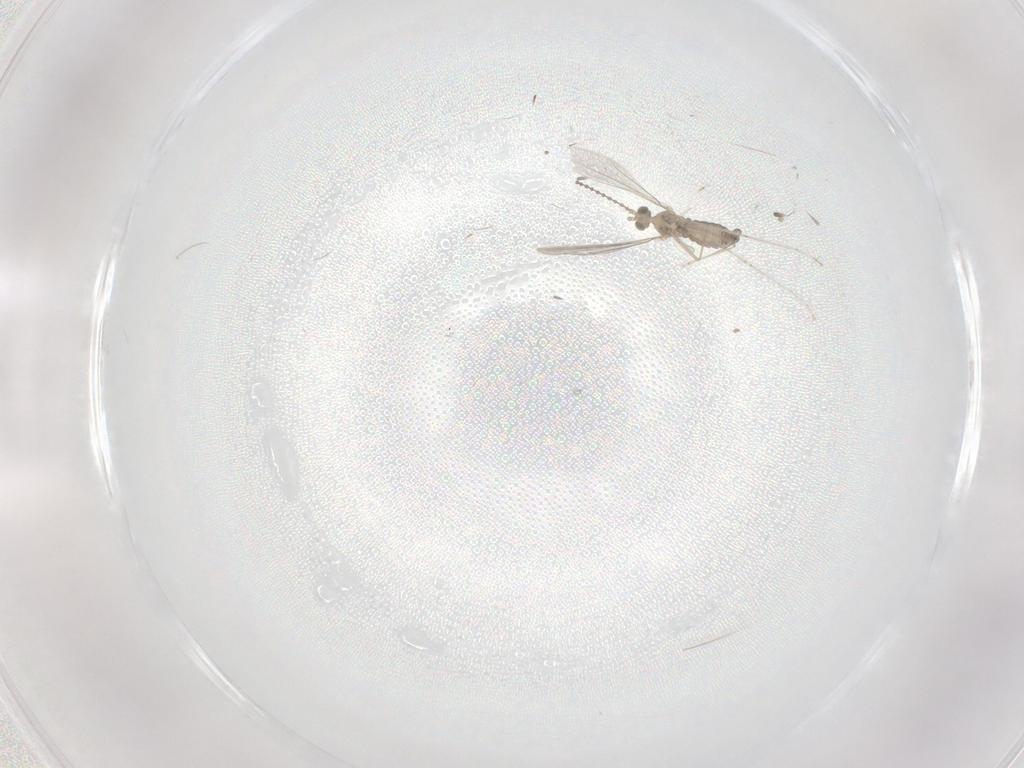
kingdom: Animalia
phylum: Arthropoda
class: Insecta
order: Diptera
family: Cecidomyiidae
